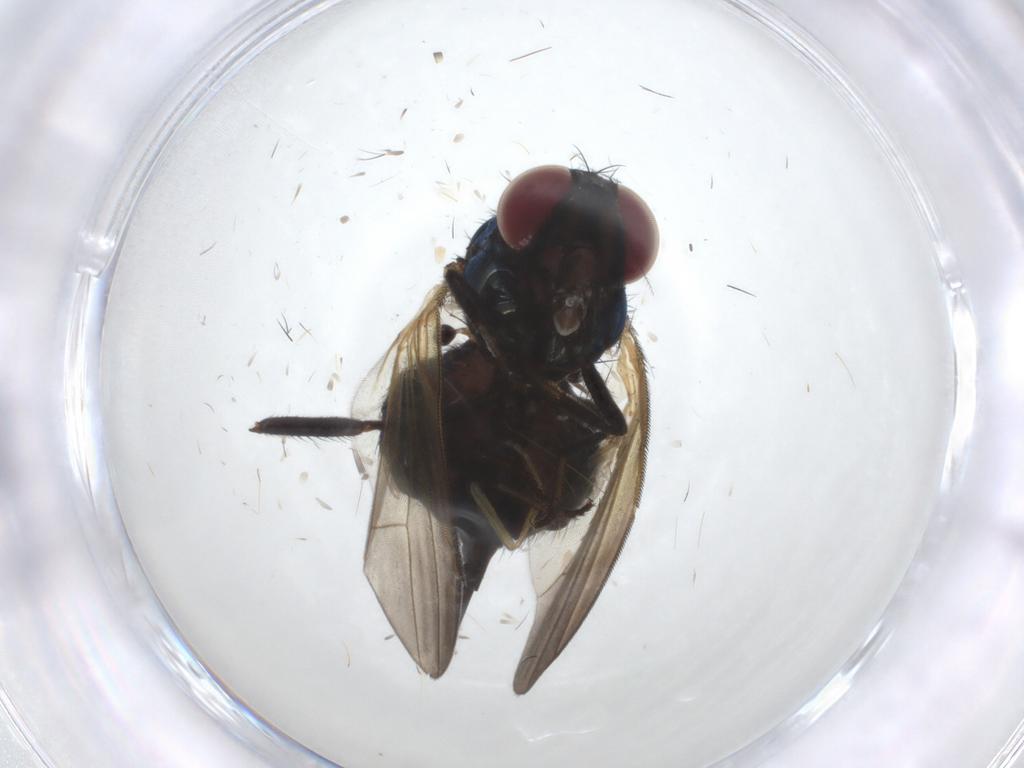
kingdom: Animalia
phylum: Arthropoda
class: Insecta
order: Diptera
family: Lonchaeidae
